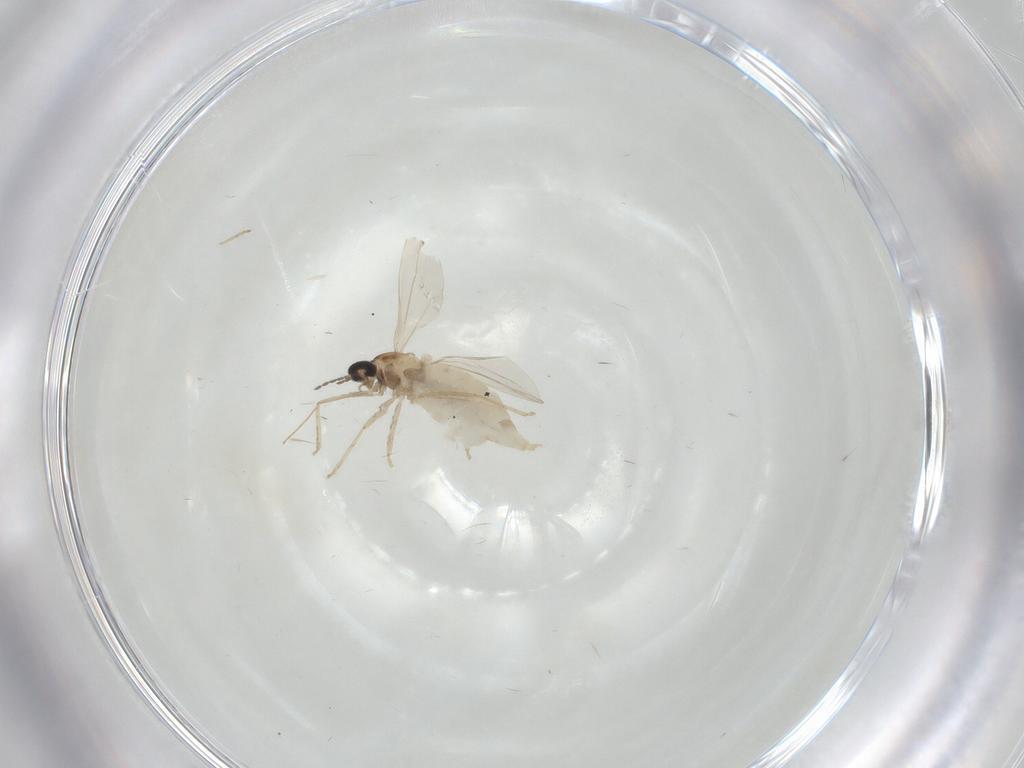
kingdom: Animalia
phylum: Arthropoda
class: Insecta
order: Diptera
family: Cecidomyiidae
